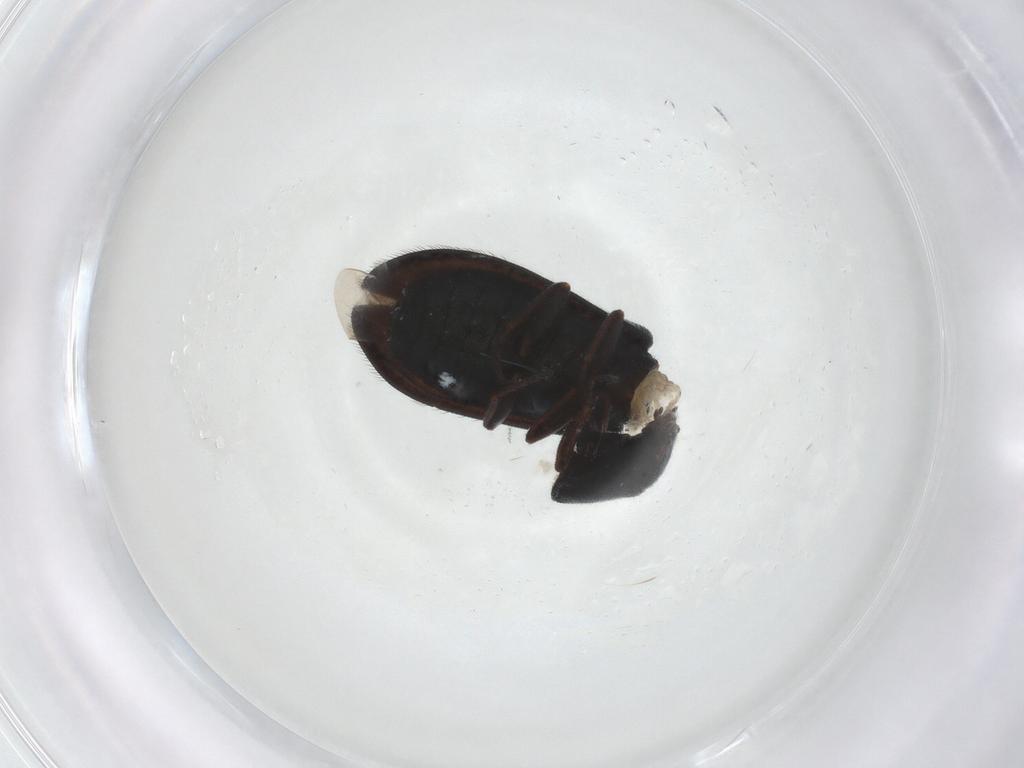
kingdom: Animalia
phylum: Arthropoda
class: Insecta
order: Coleoptera
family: Melyridae
